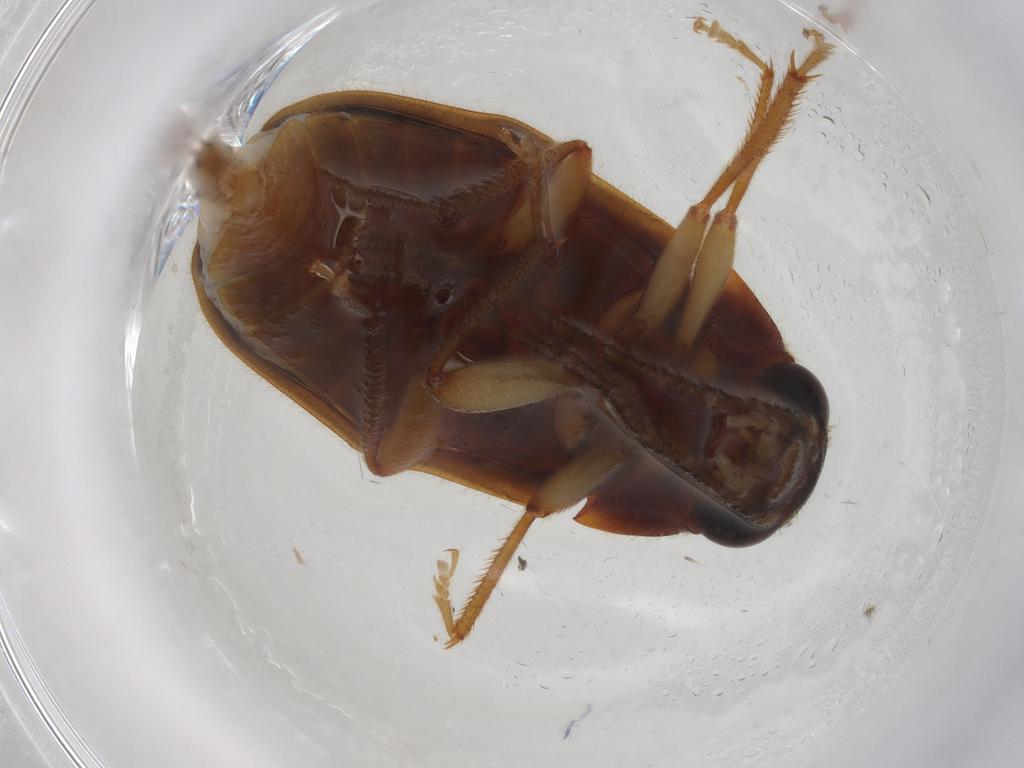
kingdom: Animalia
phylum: Arthropoda
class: Insecta
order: Coleoptera
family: Ptilodactylidae
